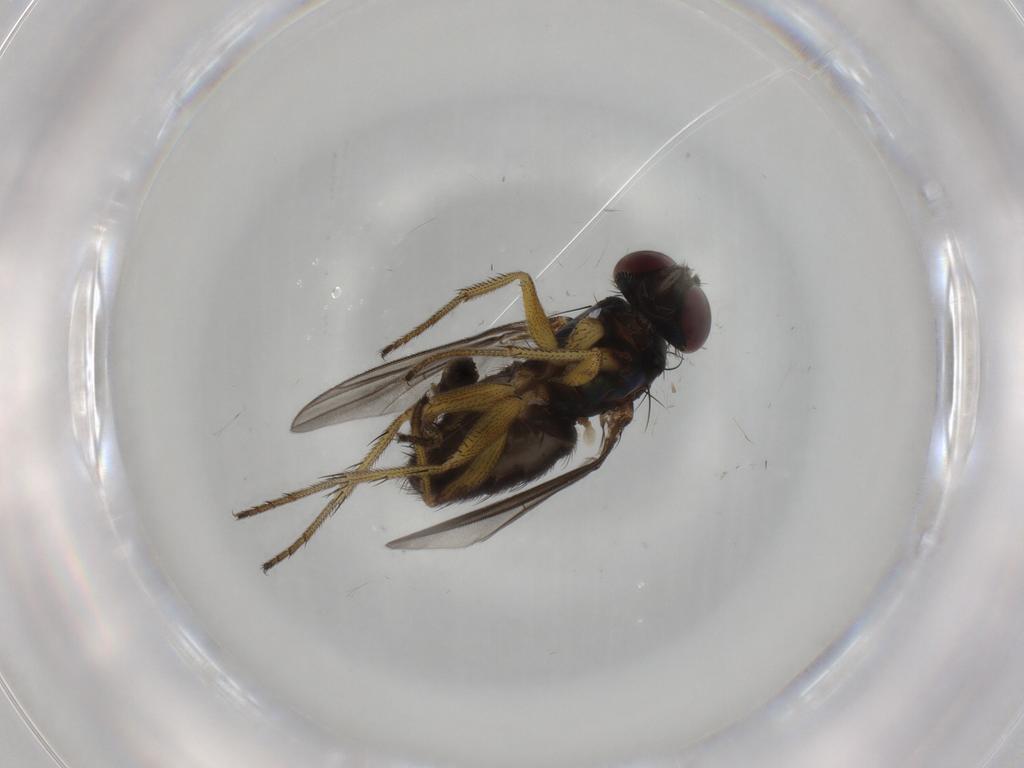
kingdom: Animalia
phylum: Arthropoda
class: Insecta
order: Diptera
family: Dolichopodidae
